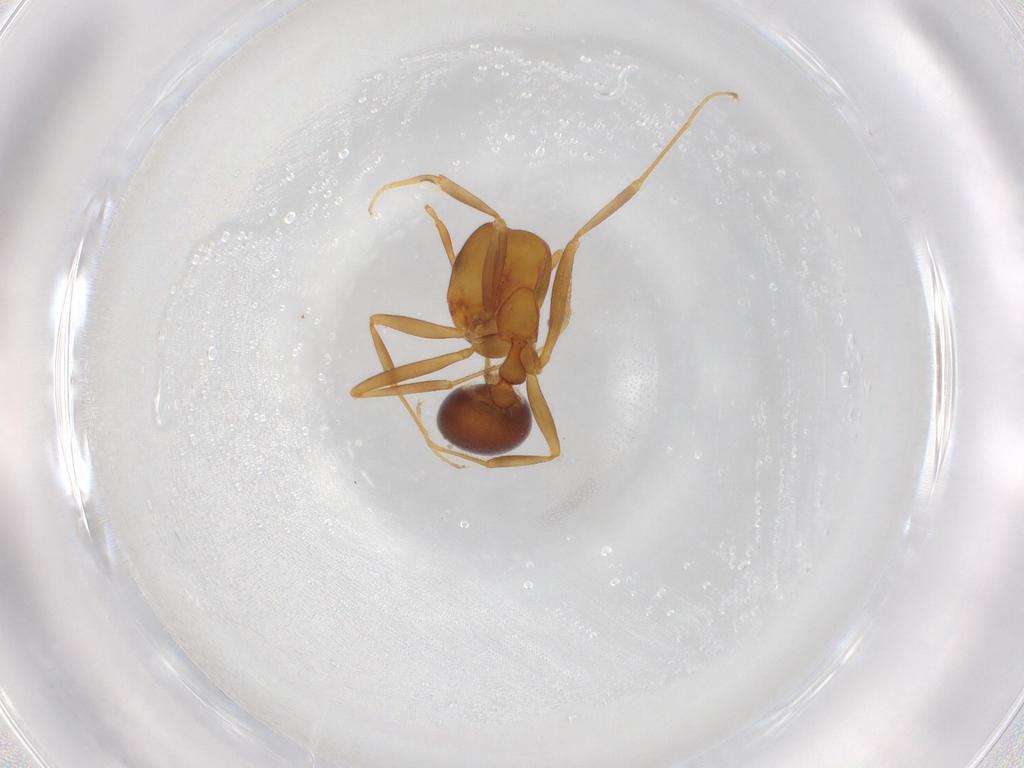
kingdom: Animalia
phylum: Arthropoda
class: Insecta
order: Hymenoptera
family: Formicidae
